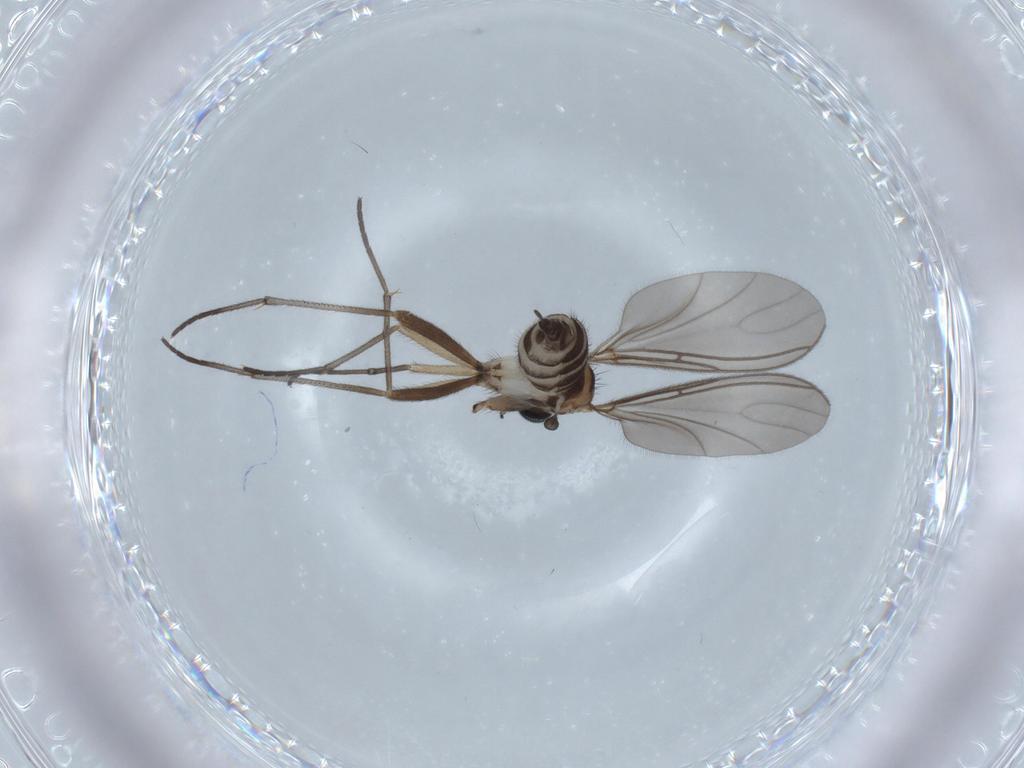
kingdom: Animalia
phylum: Arthropoda
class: Insecta
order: Diptera
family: Sciaridae
